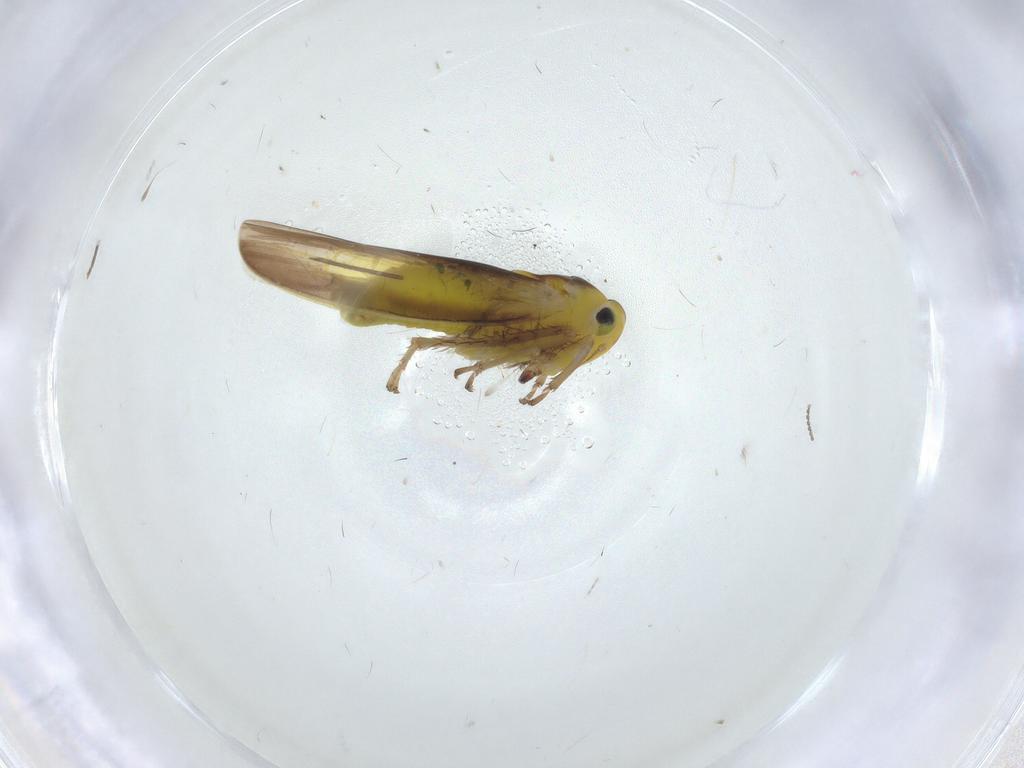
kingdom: Animalia
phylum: Arthropoda
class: Insecta
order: Hemiptera
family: Cicadellidae
